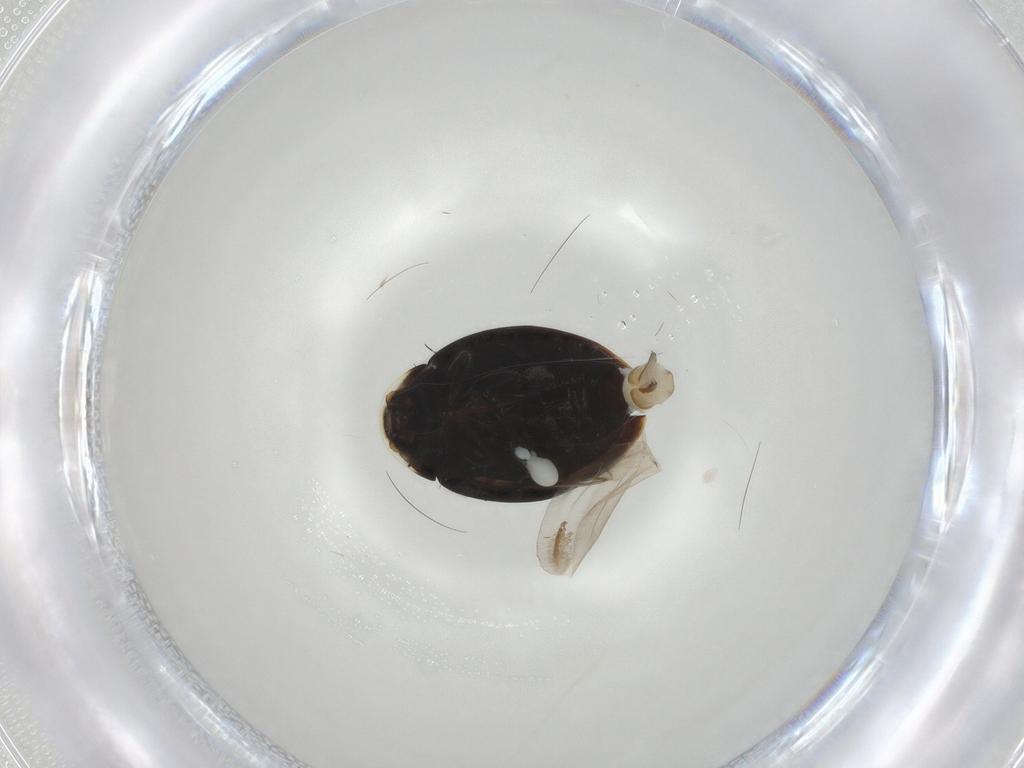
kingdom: Animalia
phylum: Arthropoda
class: Insecta
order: Coleoptera
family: Coccinellidae
